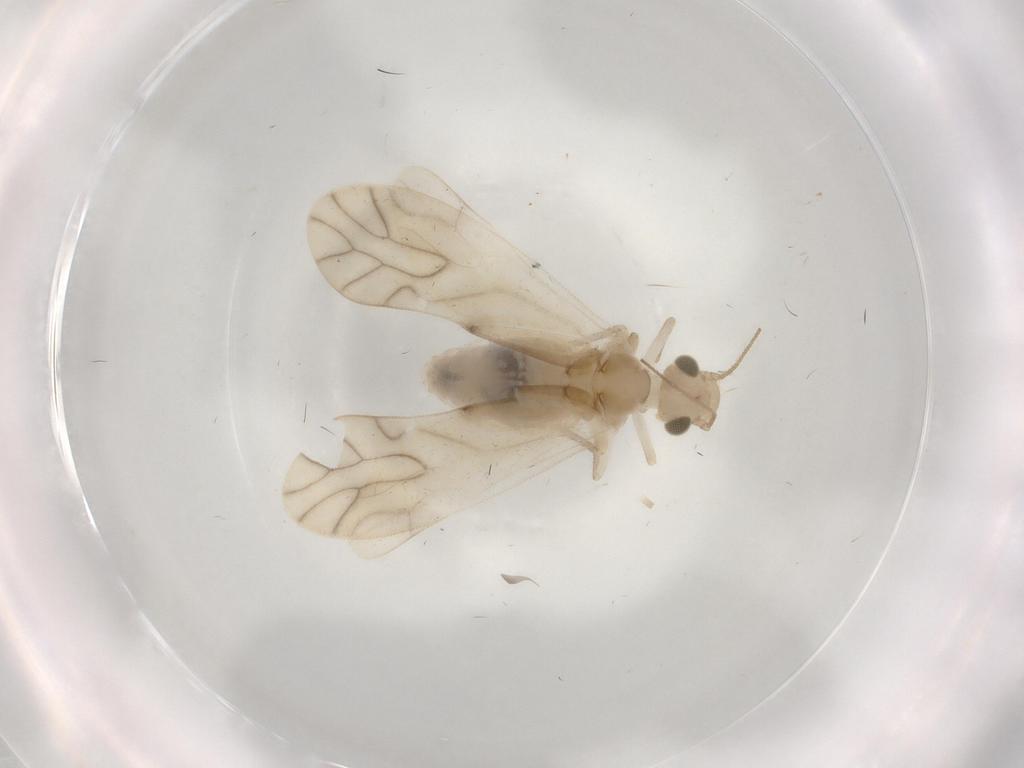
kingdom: Animalia
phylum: Arthropoda
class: Insecta
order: Psocodea
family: Caeciliusidae
